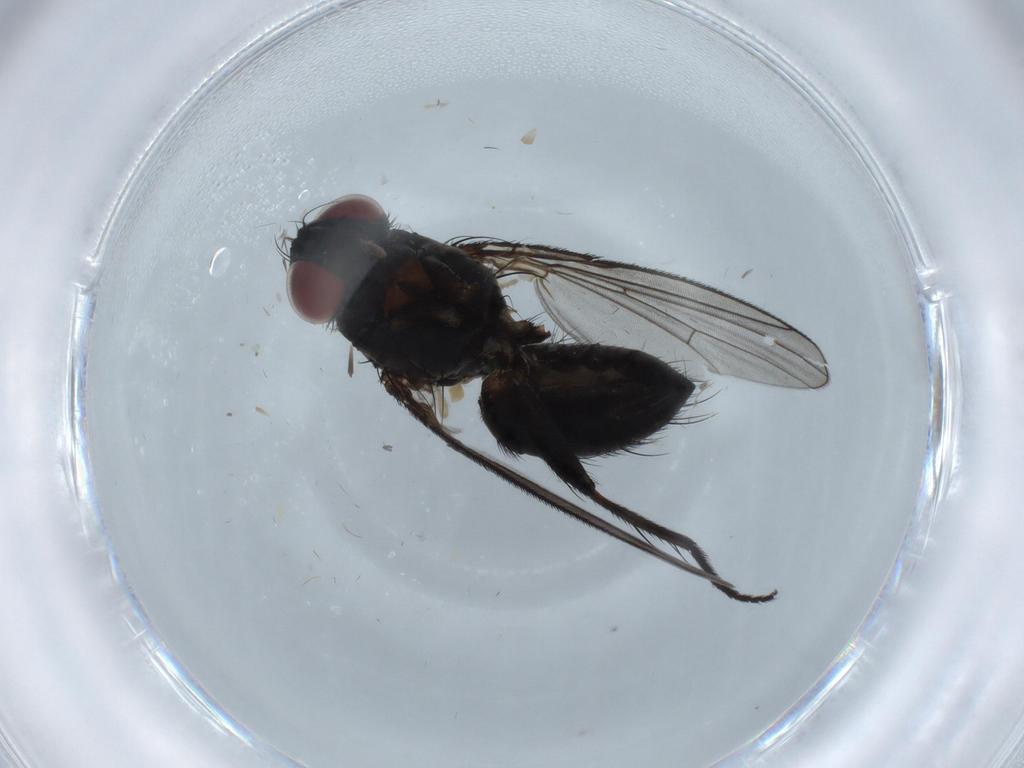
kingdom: Animalia
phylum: Arthropoda
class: Insecta
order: Diptera
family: Muscidae
